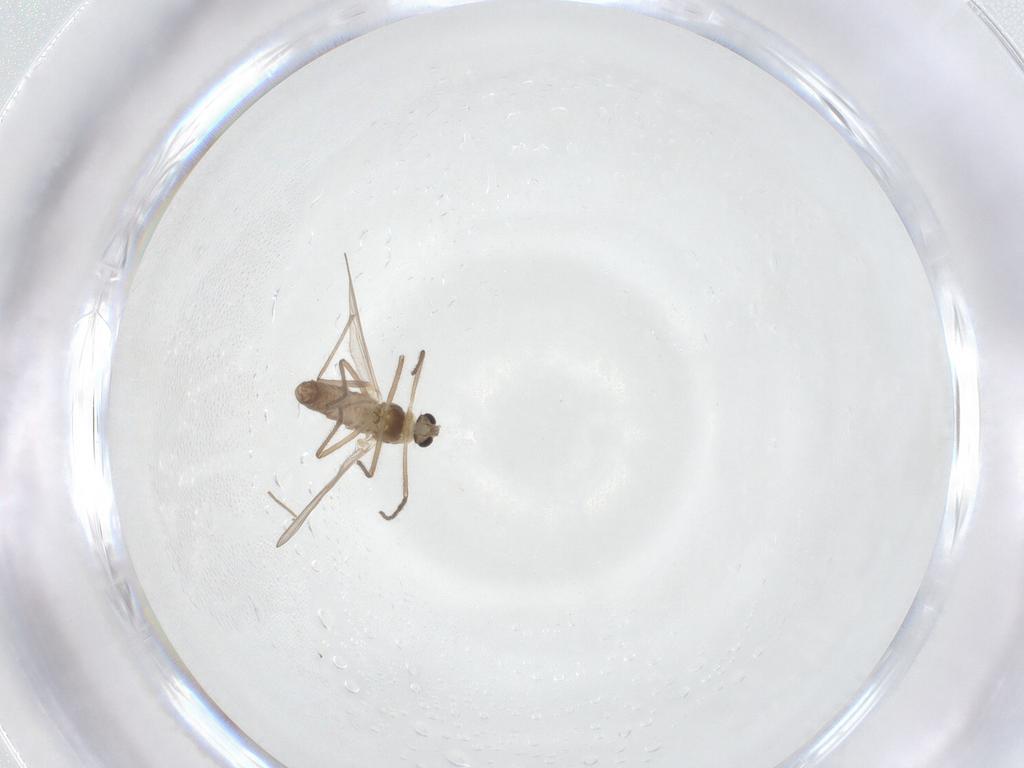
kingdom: Animalia
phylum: Arthropoda
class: Insecta
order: Diptera
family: Chironomidae
